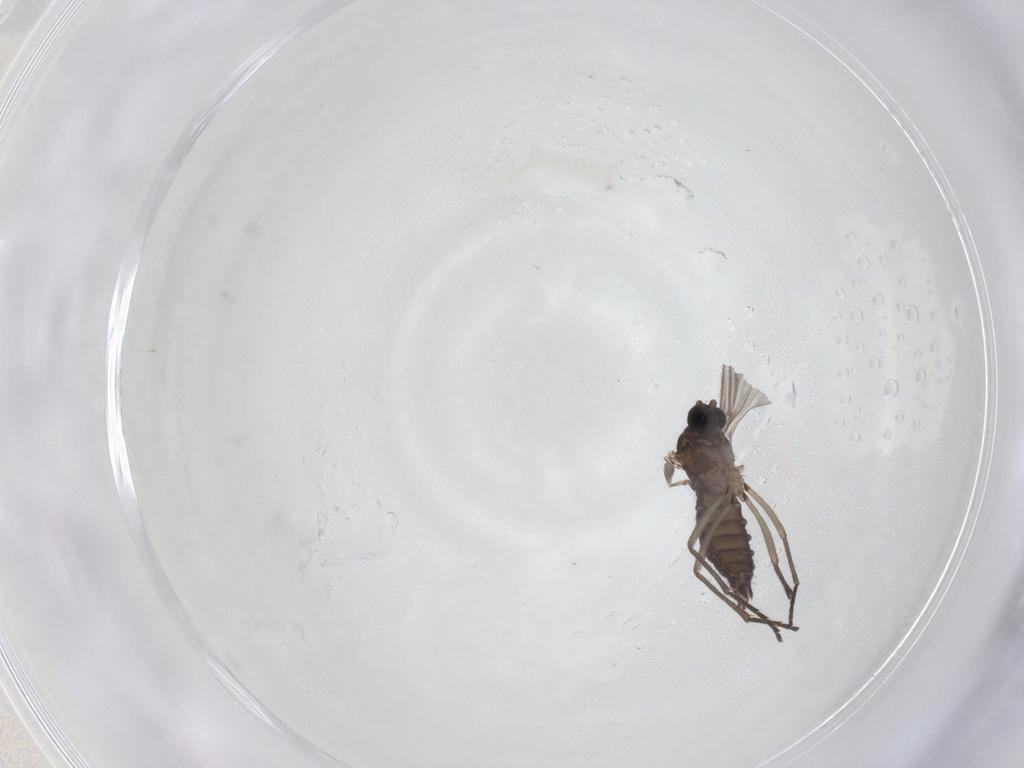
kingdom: Animalia
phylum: Arthropoda
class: Insecta
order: Diptera
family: Sciaridae
